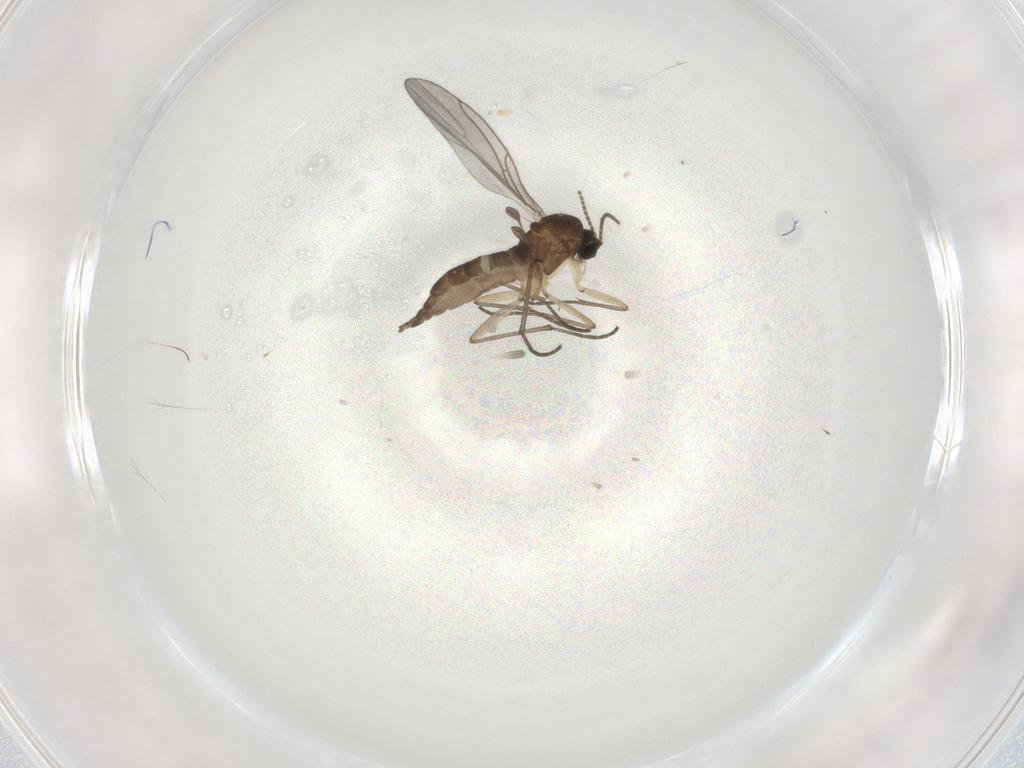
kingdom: Animalia
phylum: Arthropoda
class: Insecta
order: Diptera
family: Sciaridae
